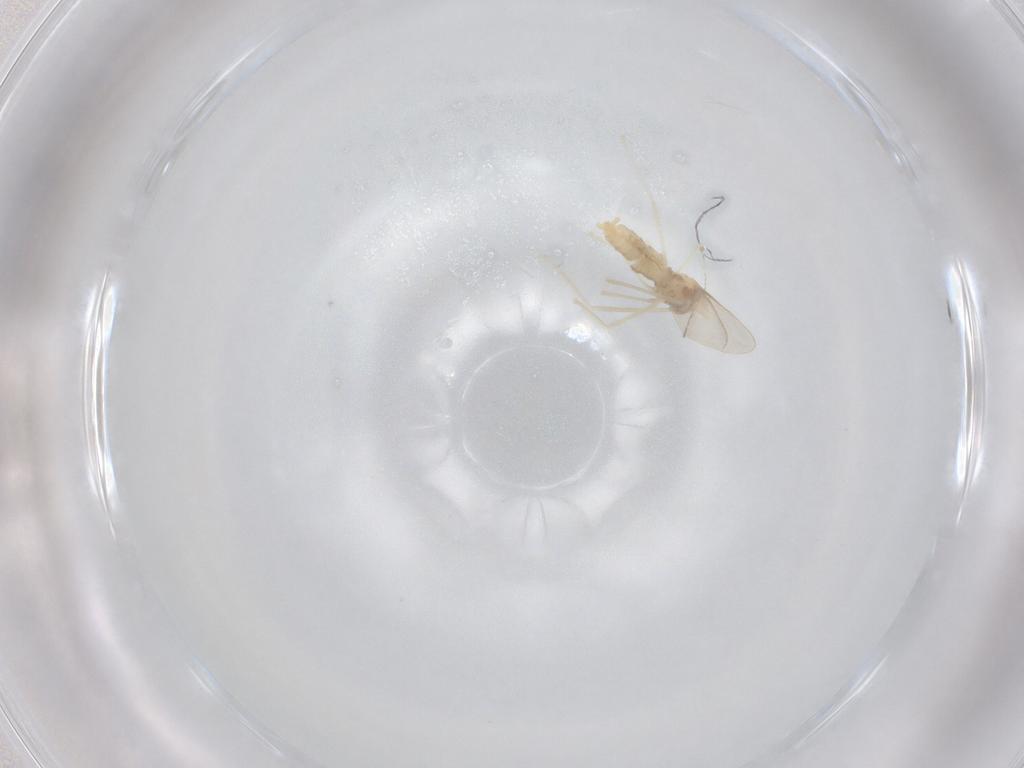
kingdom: Animalia
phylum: Arthropoda
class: Insecta
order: Diptera
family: Cecidomyiidae
